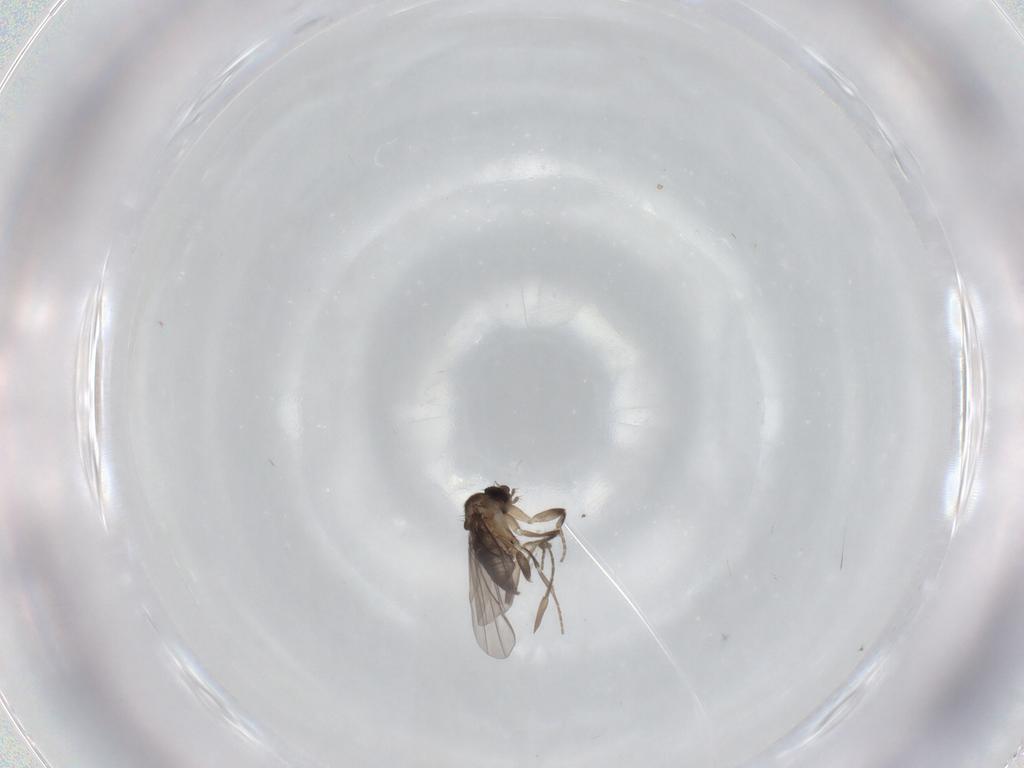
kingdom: Animalia
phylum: Arthropoda
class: Insecta
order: Diptera
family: Phoridae
